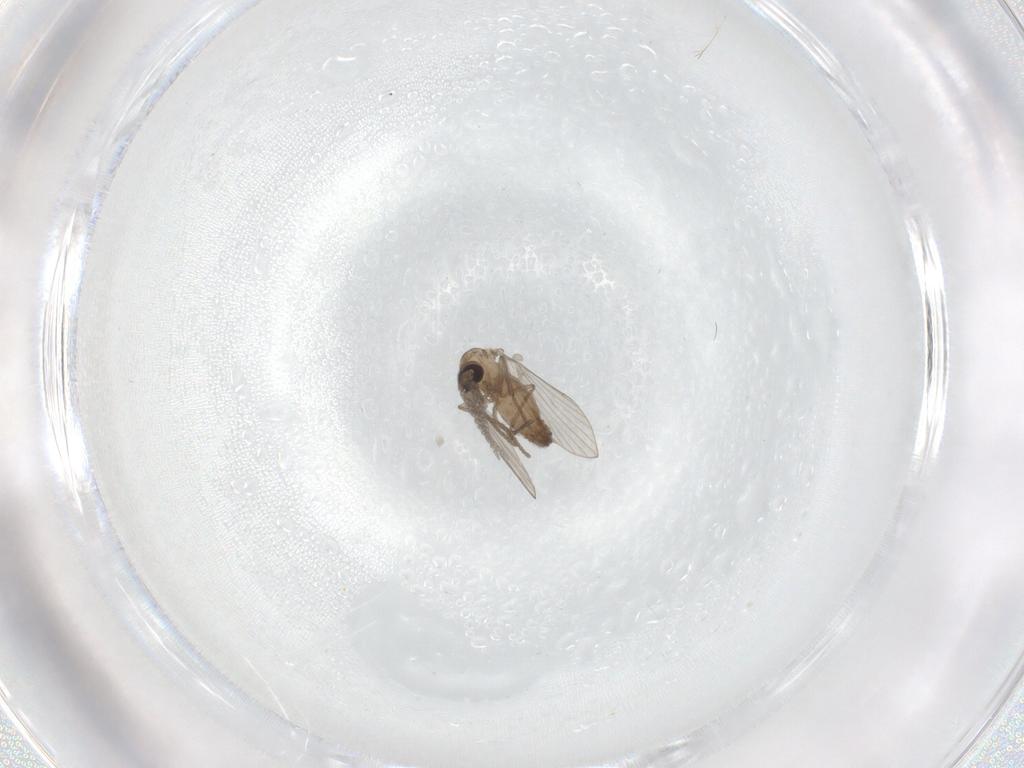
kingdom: Animalia
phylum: Arthropoda
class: Insecta
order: Diptera
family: Psychodidae
